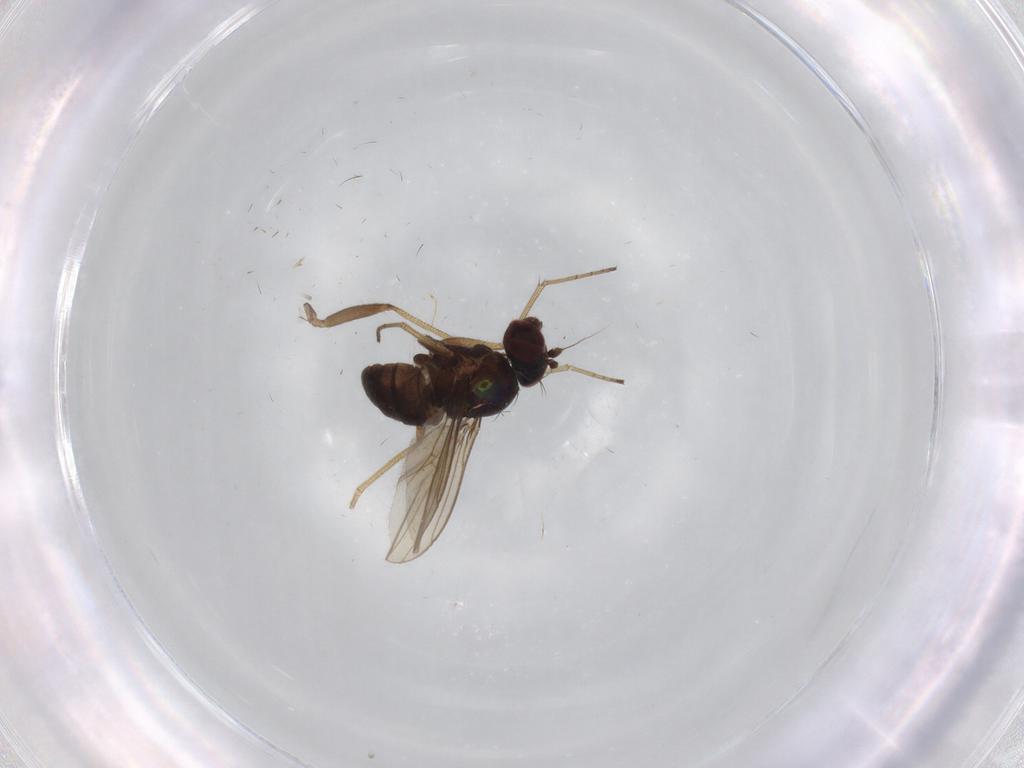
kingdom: Animalia
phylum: Arthropoda
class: Insecta
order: Diptera
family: Dolichopodidae
